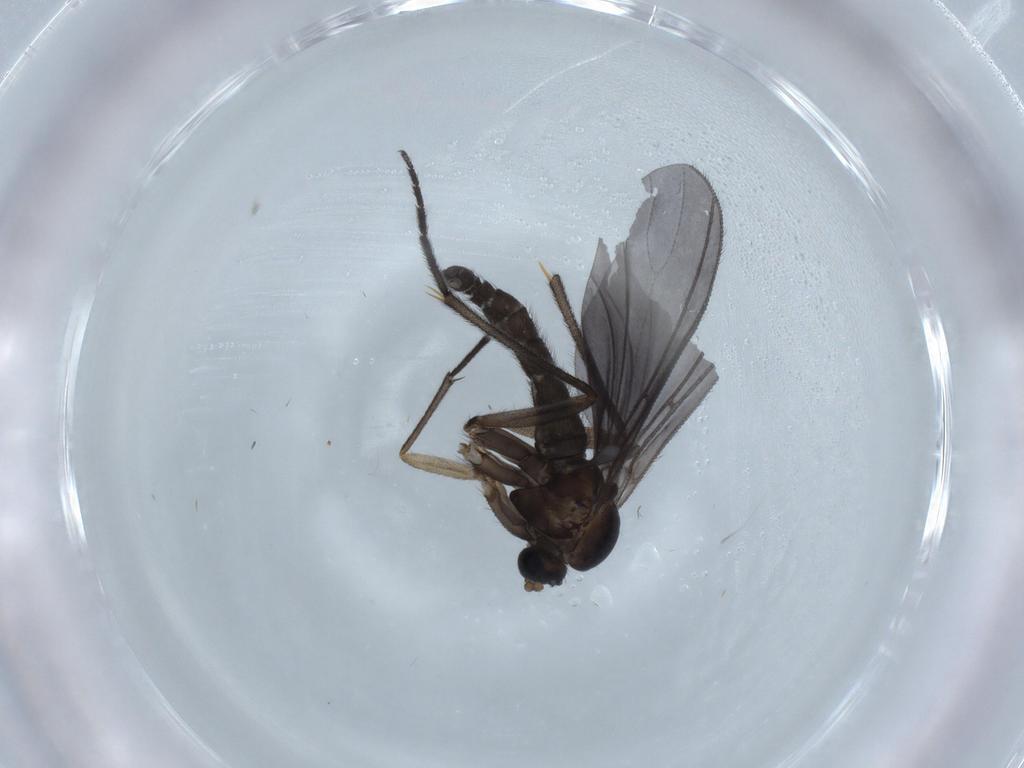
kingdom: Animalia
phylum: Arthropoda
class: Insecta
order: Diptera
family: Sciaridae
